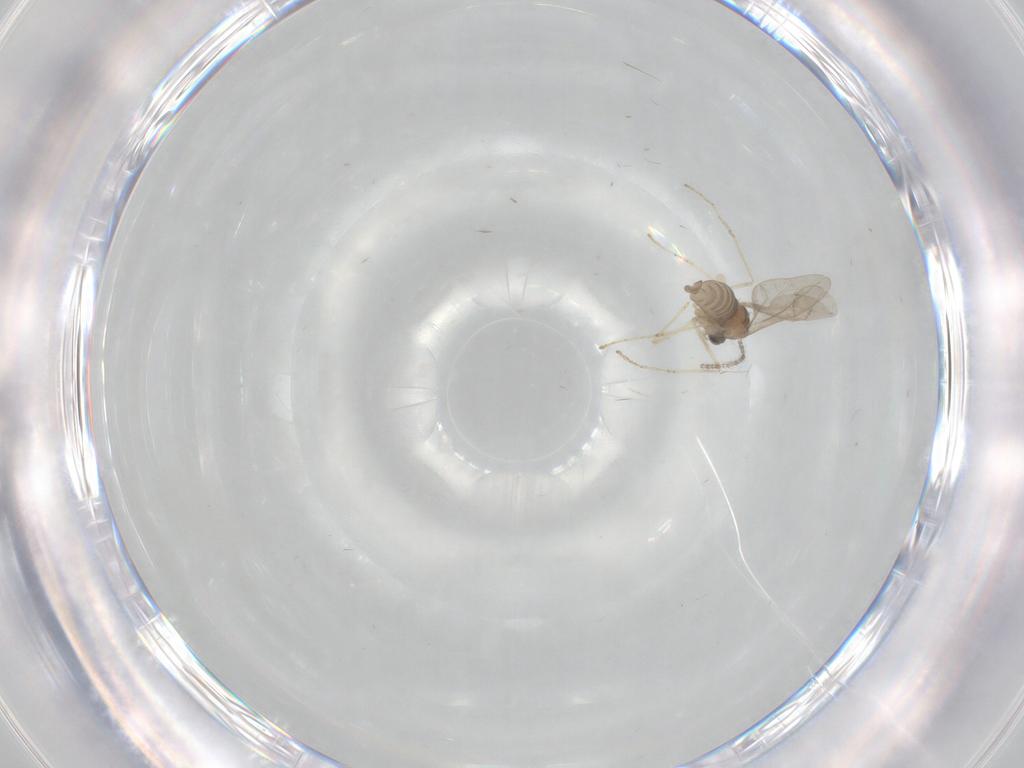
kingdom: Animalia
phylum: Arthropoda
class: Insecta
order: Diptera
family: Cecidomyiidae
